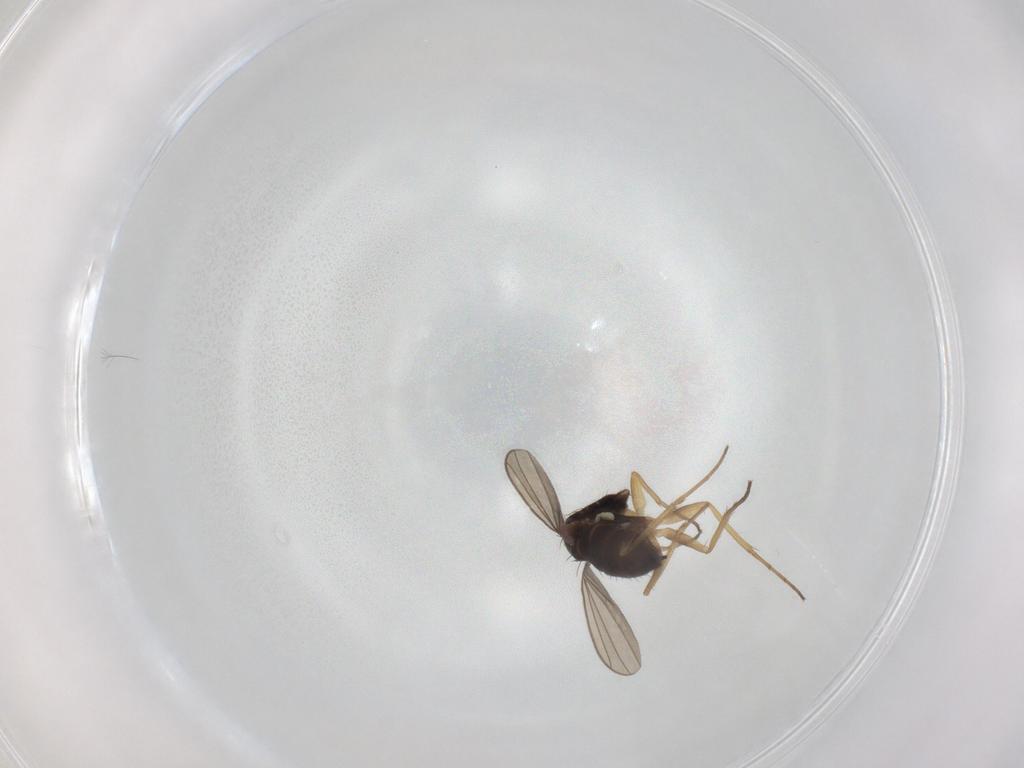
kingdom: Animalia
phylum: Arthropoda
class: Insecta
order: Diptera
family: Dolichopodidae
